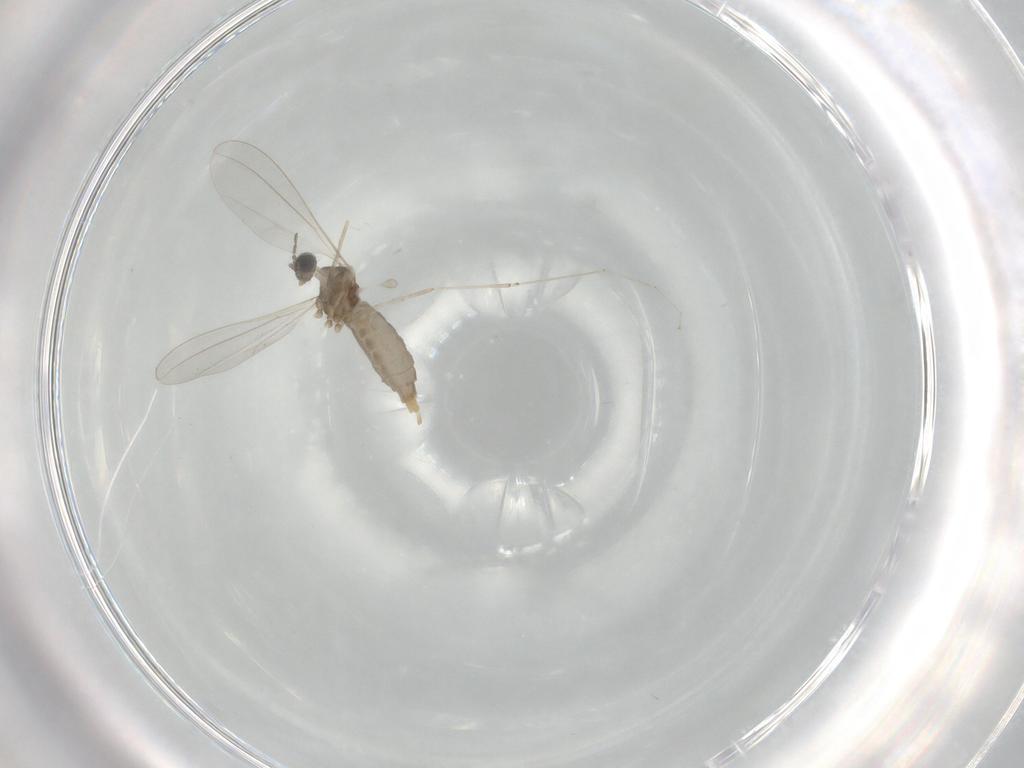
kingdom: Animalia
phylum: Arthropoda
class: Insecta
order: Diptera
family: Cecidomyiidae
